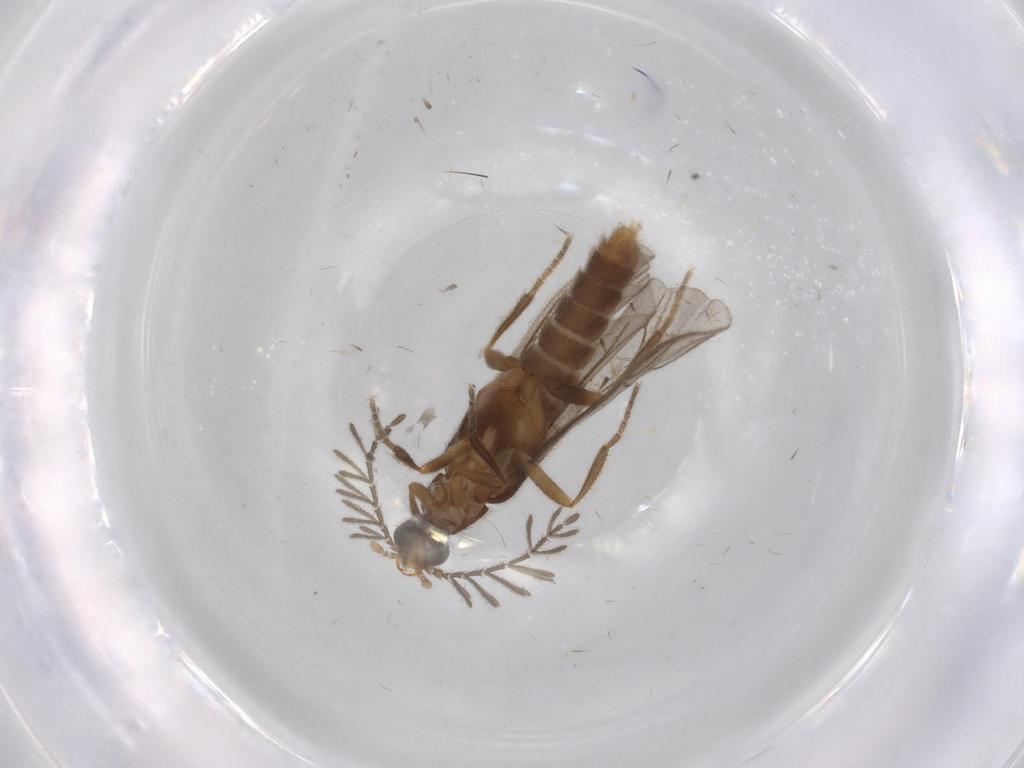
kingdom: Animalia
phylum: Arthropoda
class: Insecta
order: Coleoptera
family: Ptilodactylidae
